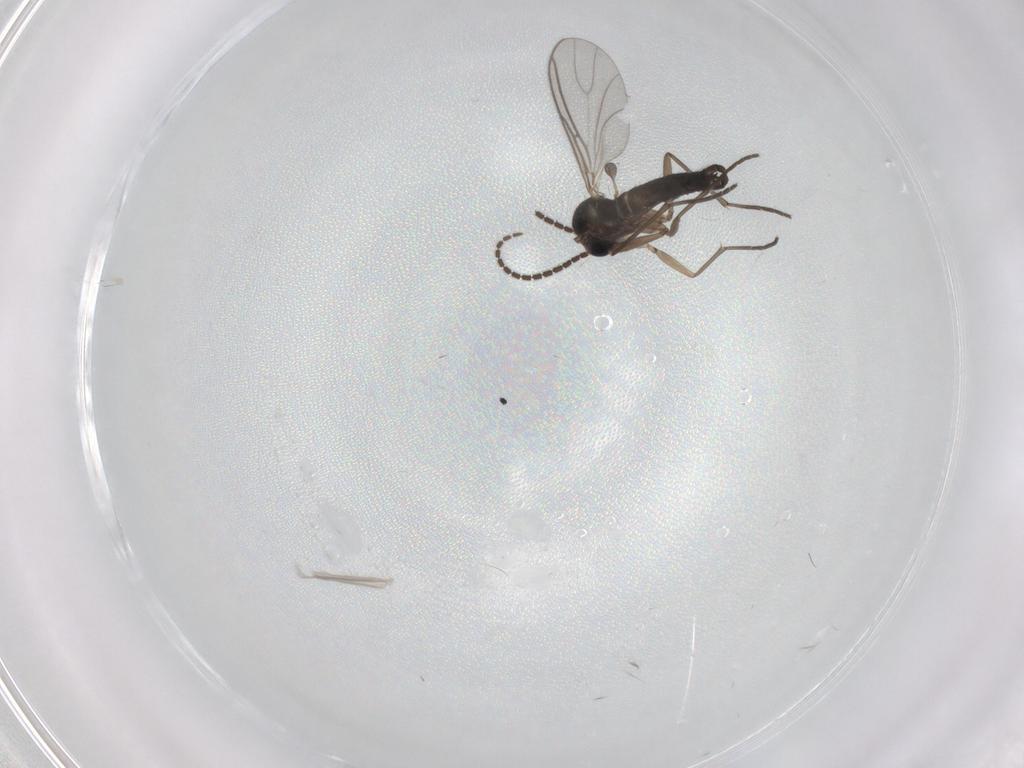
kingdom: Animalia
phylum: Arthropoda
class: Insecta
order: Diptera
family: Sciaridae
